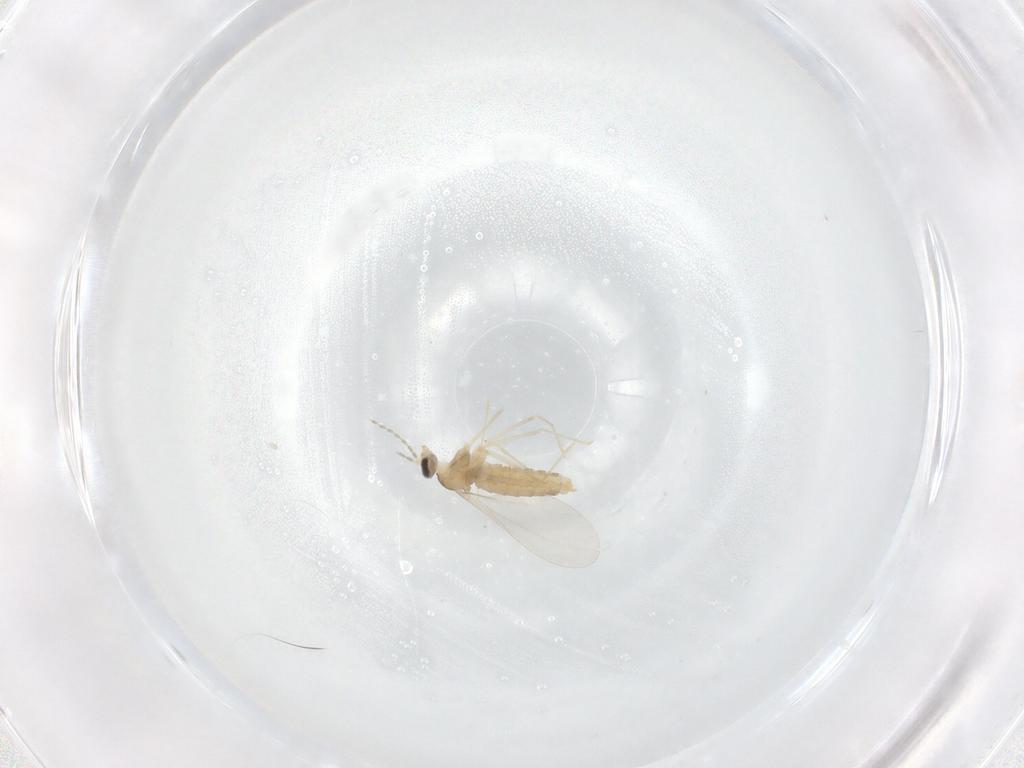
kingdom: Animalia
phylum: Arthropoda
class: Insecta
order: Diptera
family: Cecidomyiidae
